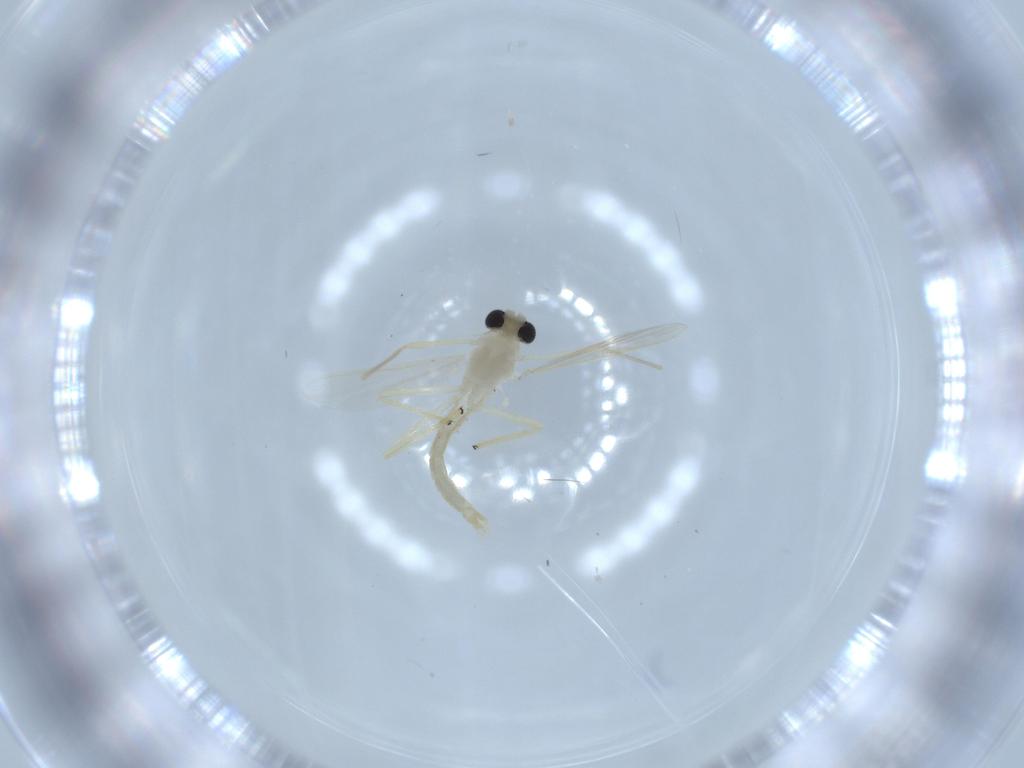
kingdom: Animalia
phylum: Arthropoda
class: Insecta
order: Diptera
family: Chironomidae
